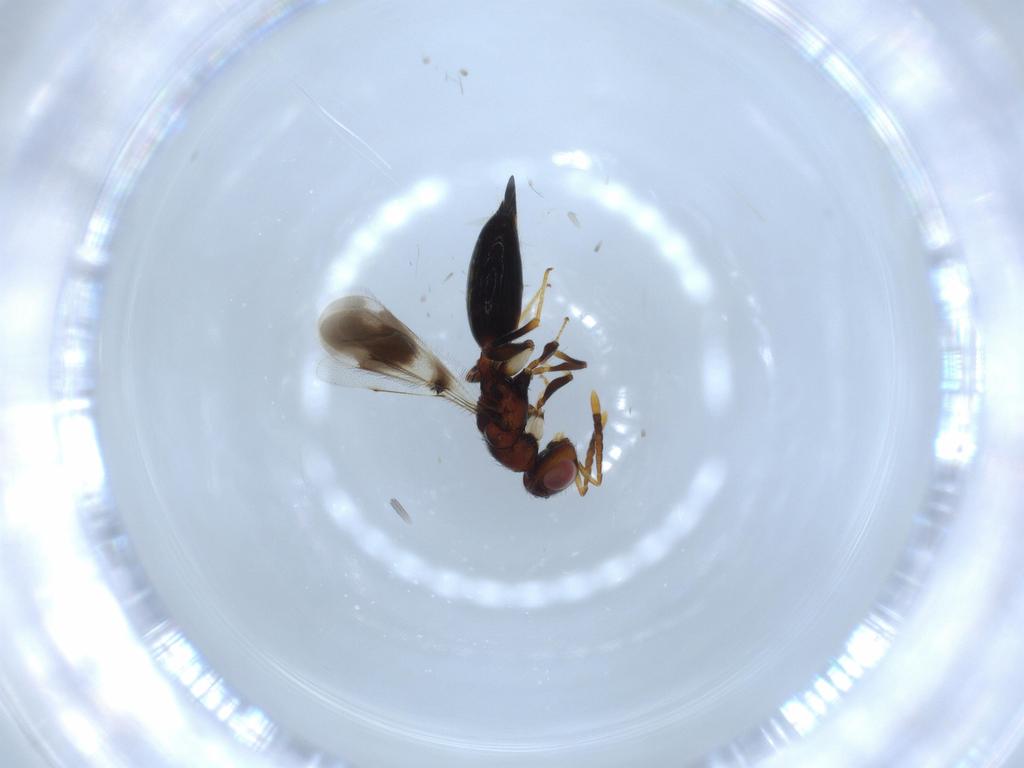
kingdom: Animalia
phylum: Arthropoda
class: Insecta
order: Hymenoptera
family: Cerocephalidae
